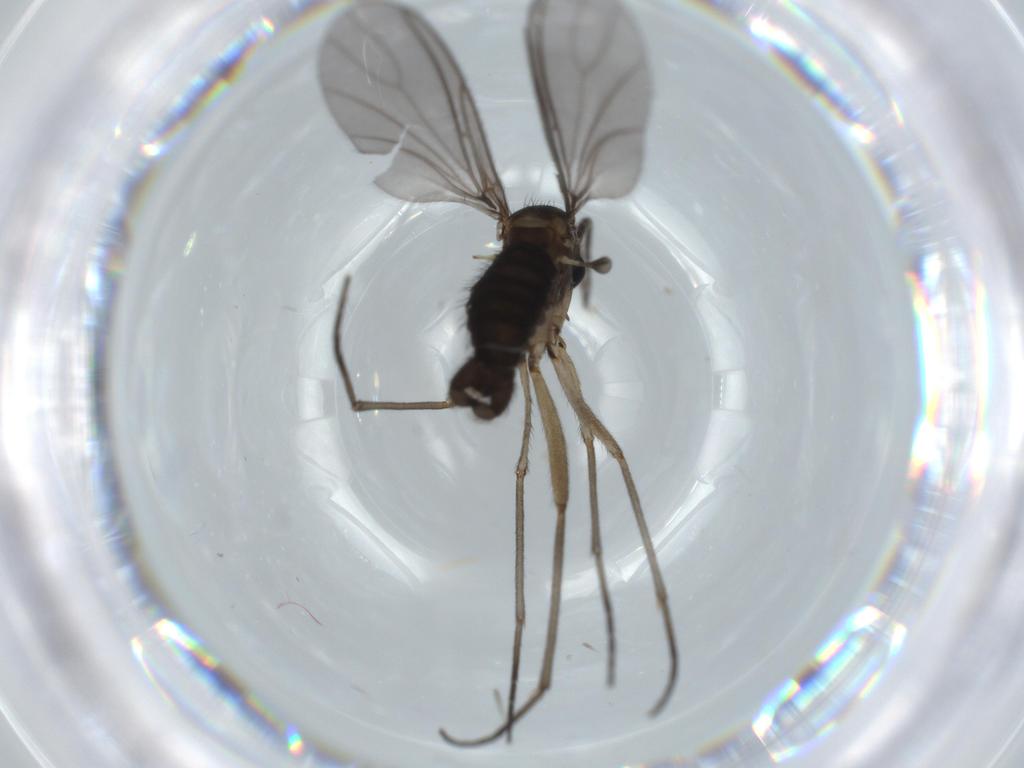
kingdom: Animalia
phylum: Arthropoda
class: Insecta
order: Diptera
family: Sciaridae
